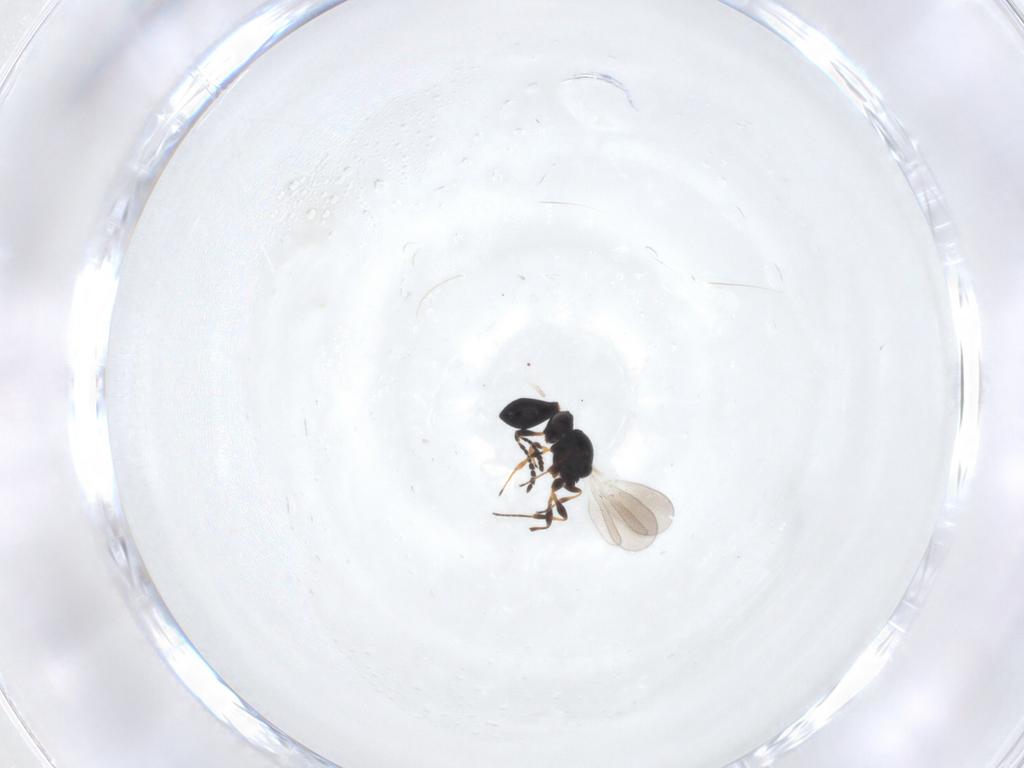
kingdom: Animalia
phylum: Arthropoda
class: Insecta
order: Hymenoptera
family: Platygastridae
